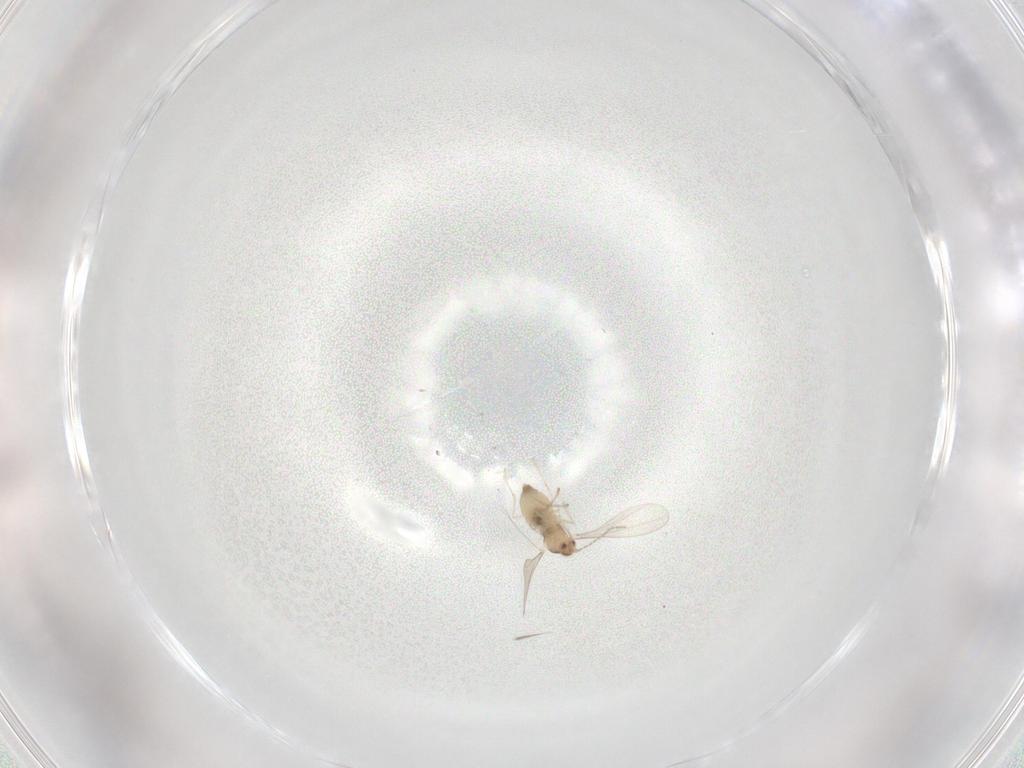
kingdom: Animalia
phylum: Arthropoda
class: Insecta
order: Diptera
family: Cecidomyiidae
